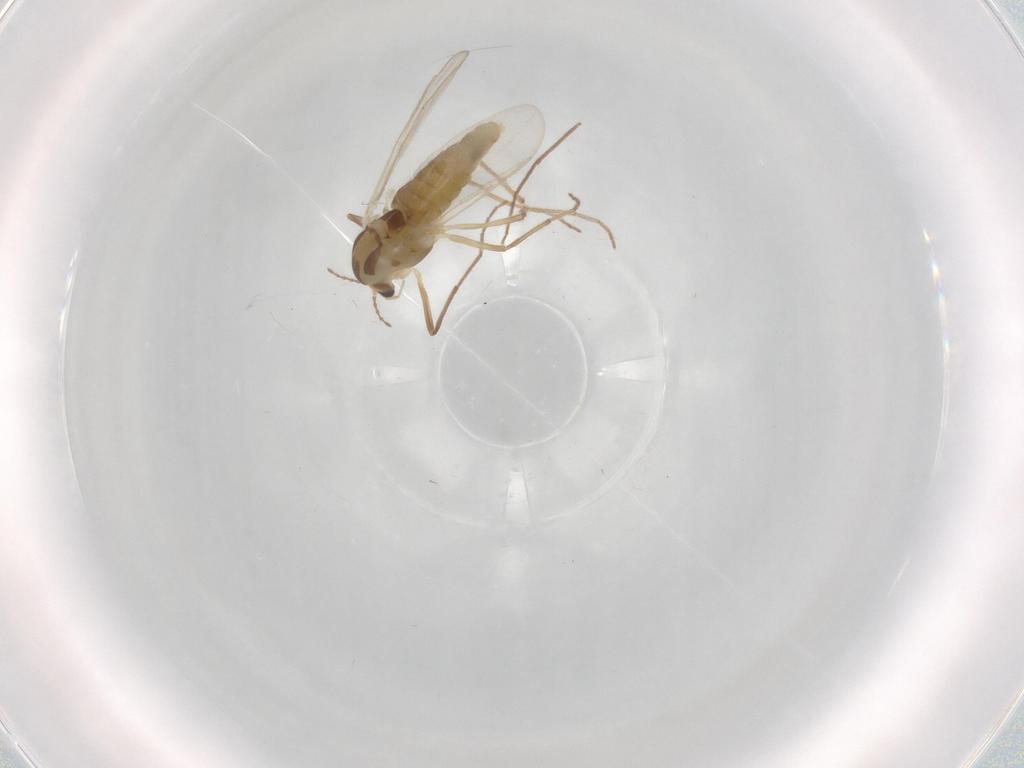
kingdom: Animalia
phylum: Arthropoda
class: Insecta
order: Diptera
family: Chironomidae
